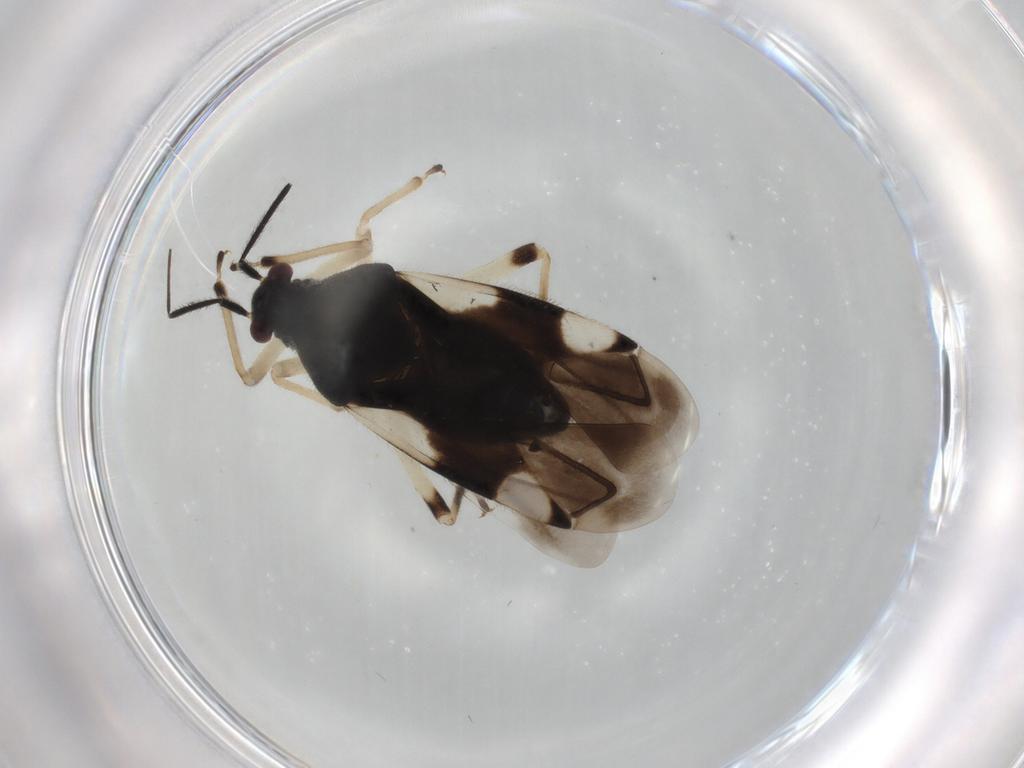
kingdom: Animalia
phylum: Arthropoda
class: Insecta
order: Hemiptera
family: Miridae
